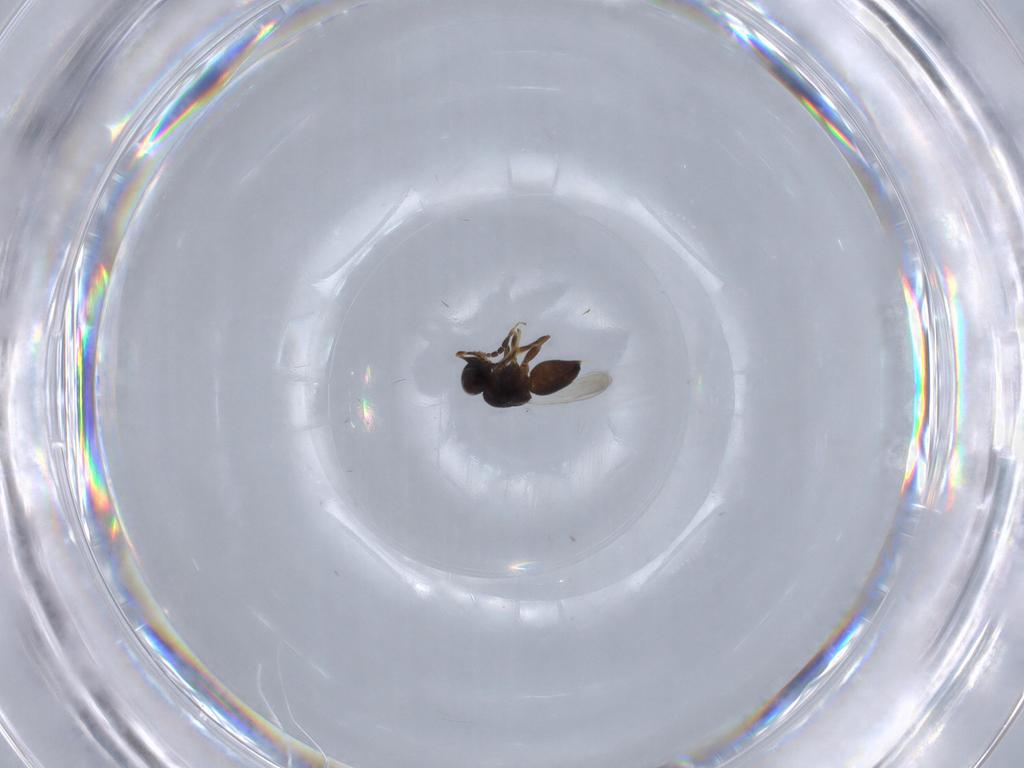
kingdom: Animalia
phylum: Arthropoda
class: Insecta
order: Hymenoptera
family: Ceraphronidae
